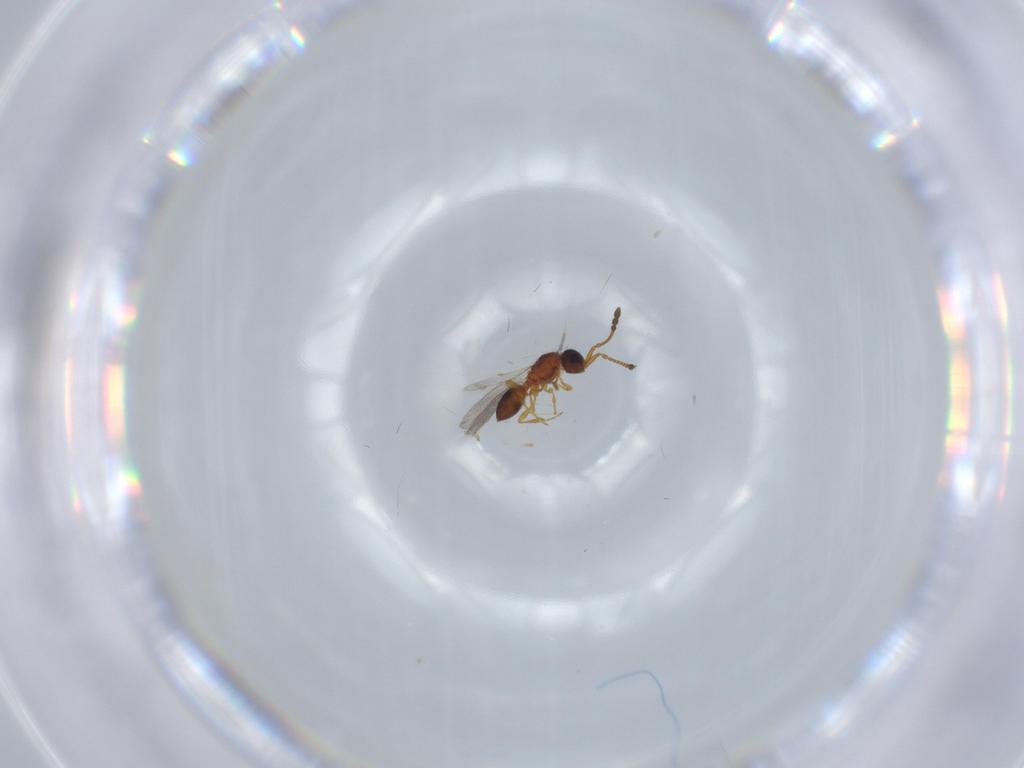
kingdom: Animalia
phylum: Arthropoda
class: Insecta
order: Hymenoptera
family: Diapriidae
